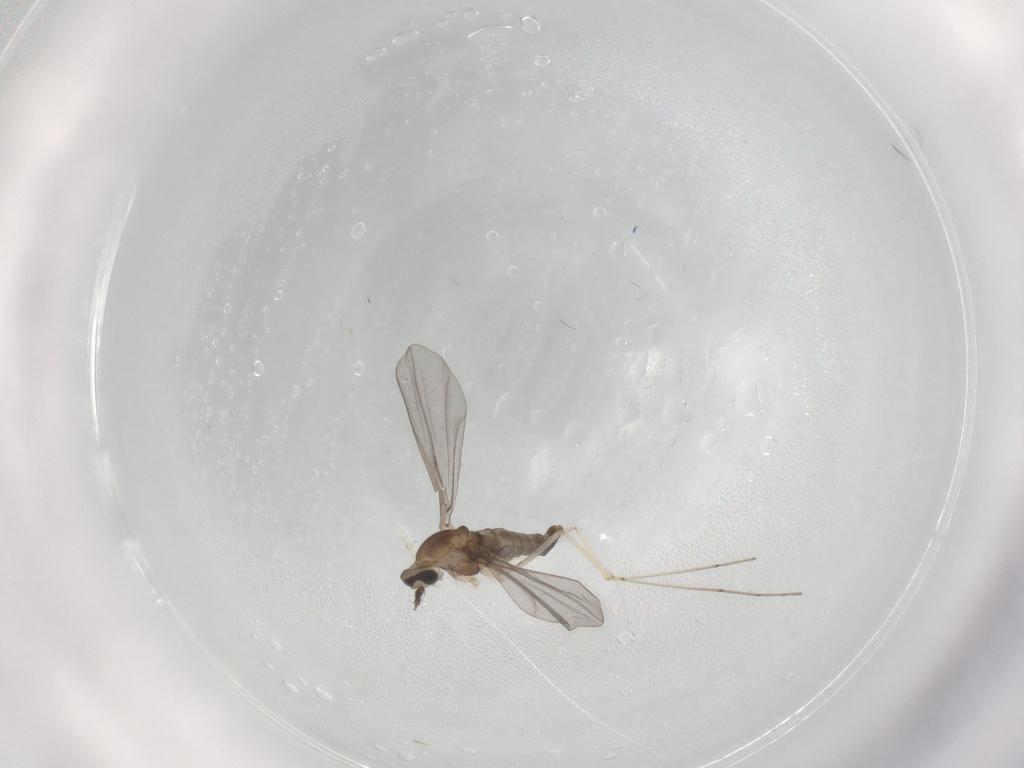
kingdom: Animalia
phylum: Arthropoda
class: Insecta
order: Diptera
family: Cecidomyiidae
